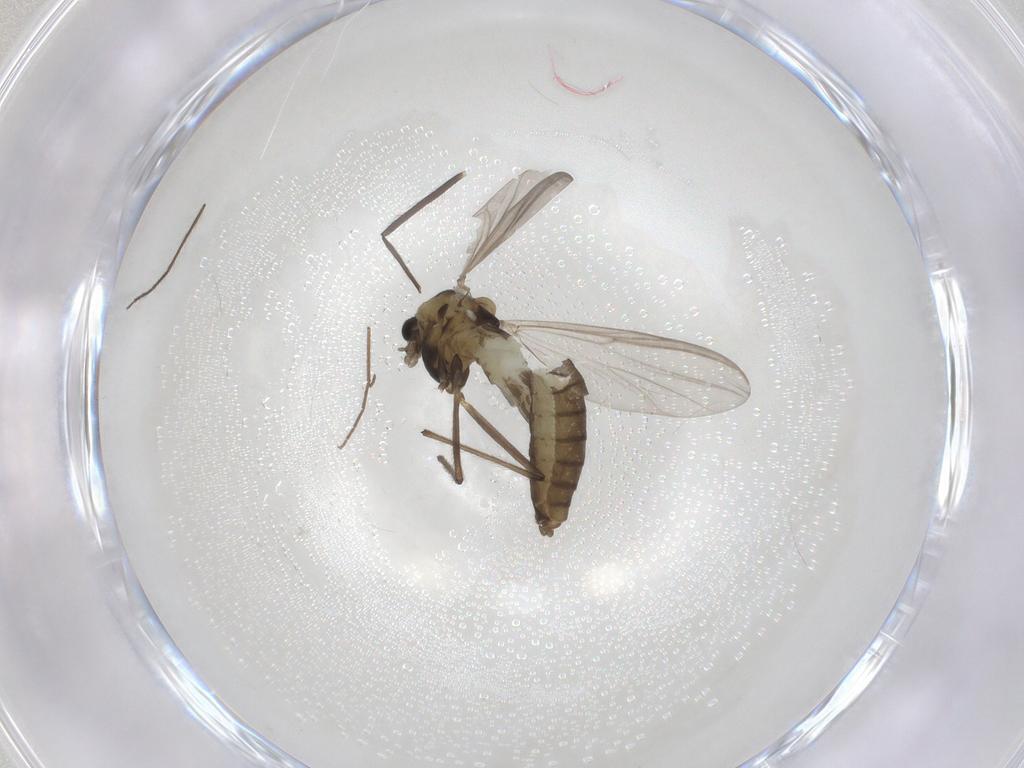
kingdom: Animalia
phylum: Arthropoda
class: Insecta
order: Diptera
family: Chironomidae
